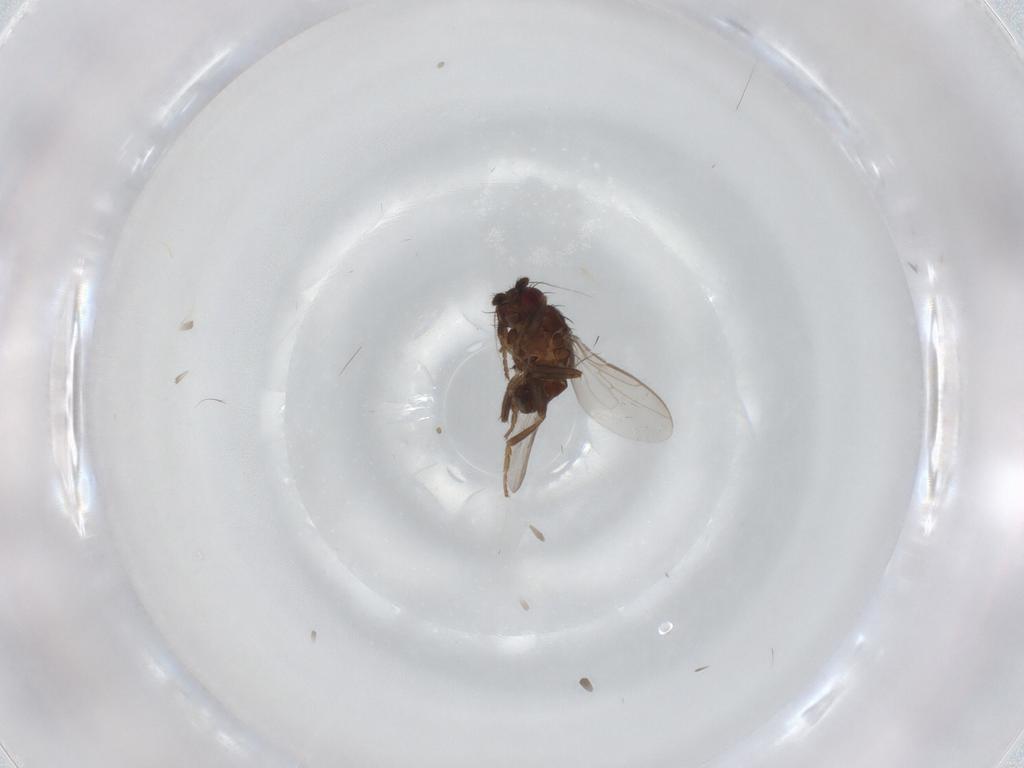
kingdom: Animalia
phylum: Arthropoda
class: Insecta
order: Diptera
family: Sphaeroceridae
